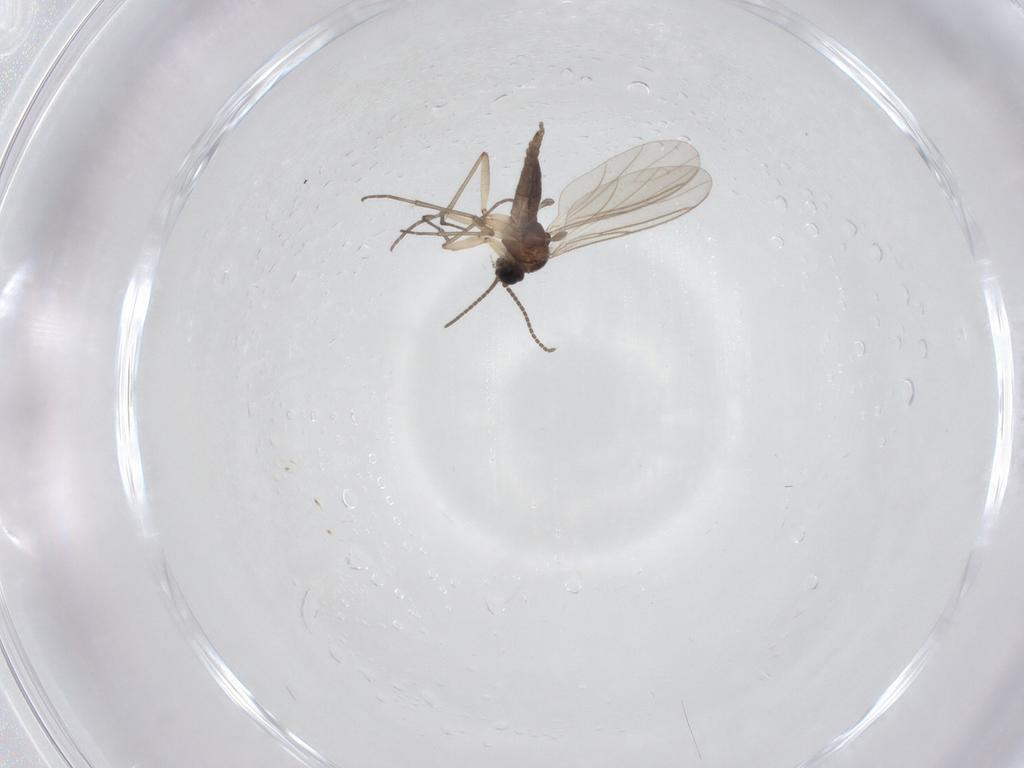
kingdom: Animalia
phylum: Arthropoda
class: Insecta
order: Diptera
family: Sciaridae
